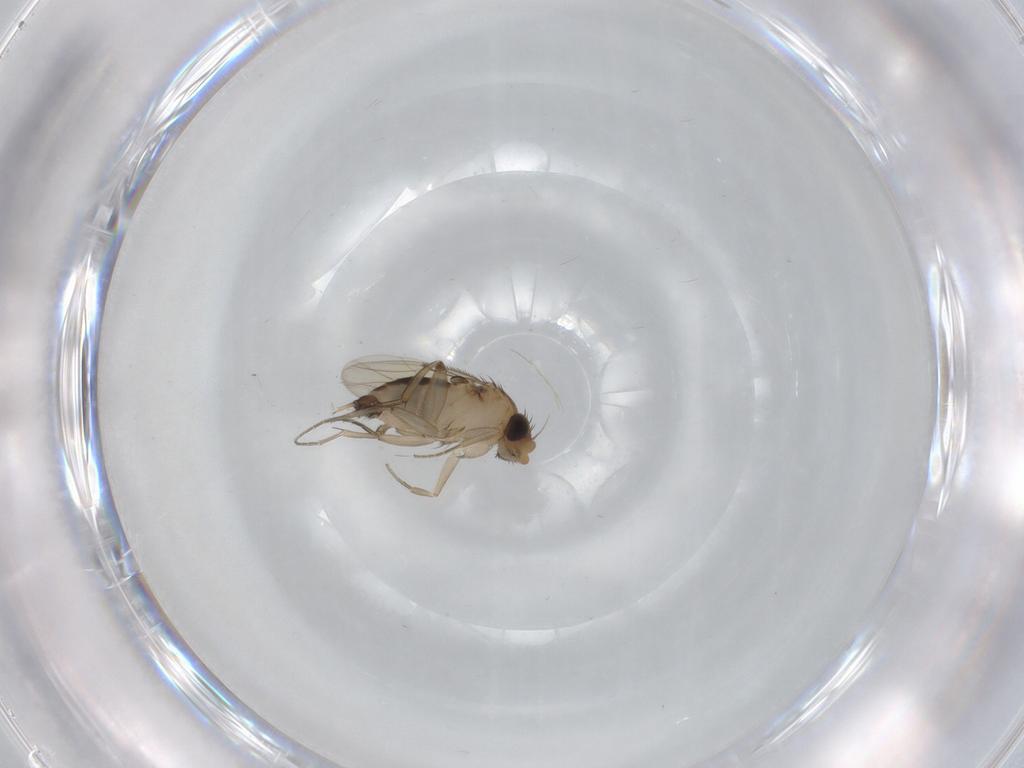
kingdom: Animalia
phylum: Arthropoda
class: Insecta
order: Diptera
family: Phoridae
